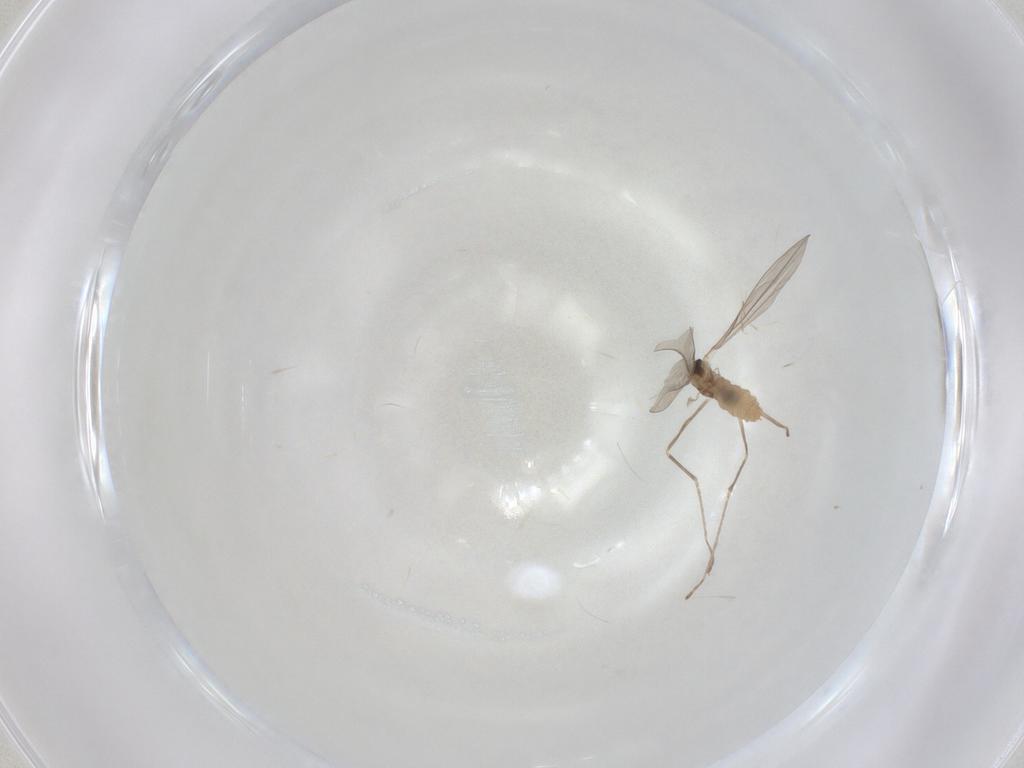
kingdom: Animalia
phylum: Arthropoda
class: Insecta
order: Diptera
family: Cecidomyiidae
